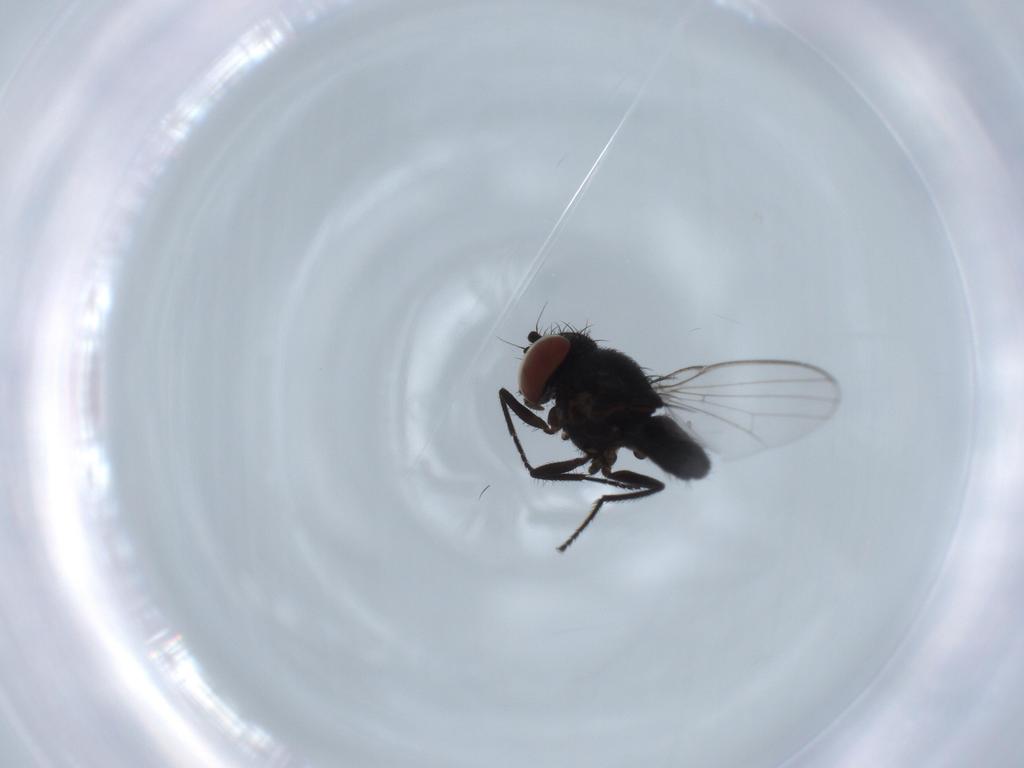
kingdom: Animalia
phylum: Arthropoda
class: Insecta
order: Diptera
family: Milichiidae
